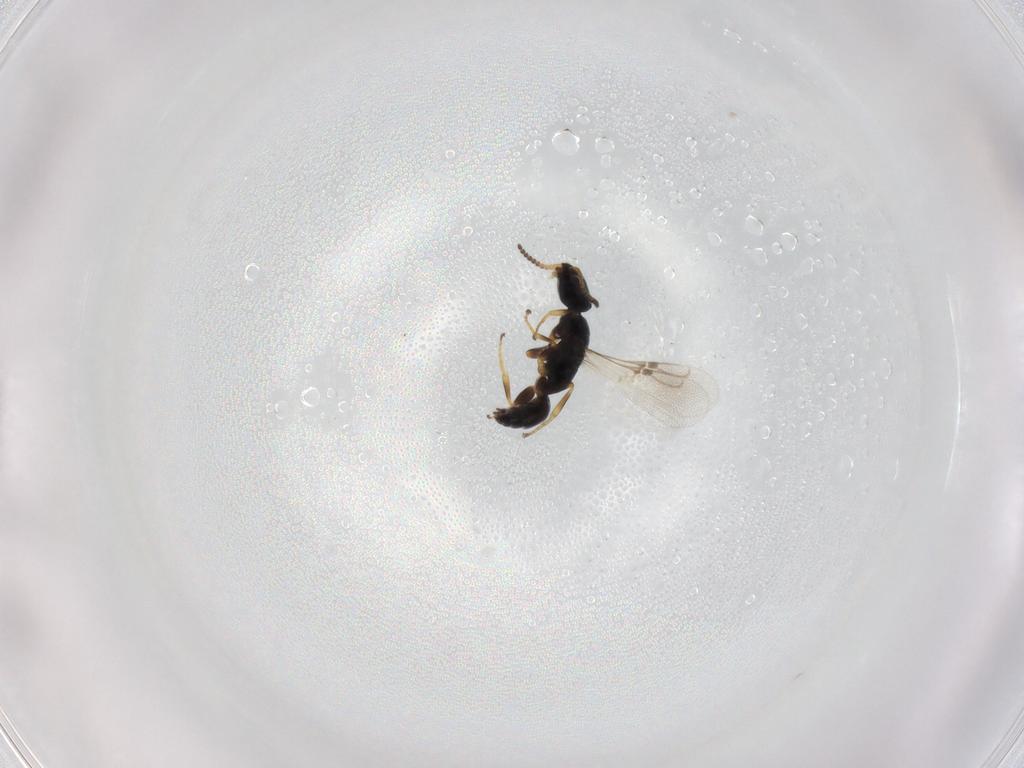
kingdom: Animalia
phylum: Arthropoda
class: Insecta
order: Hymenoptera
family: Bethylidae
